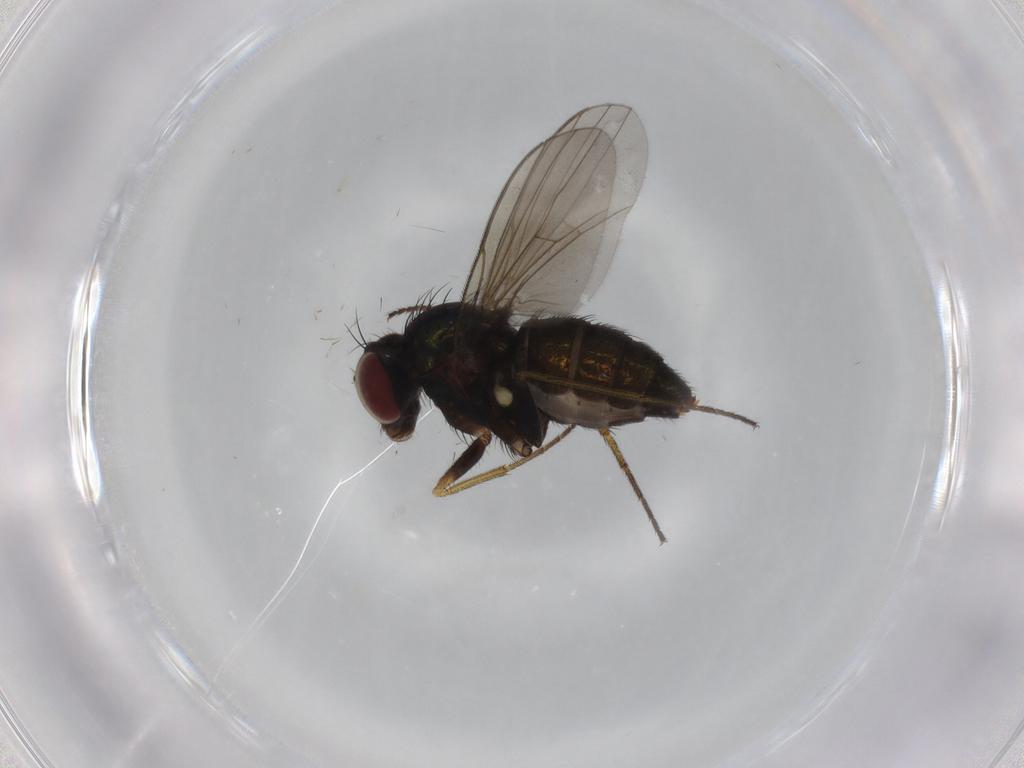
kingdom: Animalia
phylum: Arthropoda
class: Insecta
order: Diptera
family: Dolichopodidae
